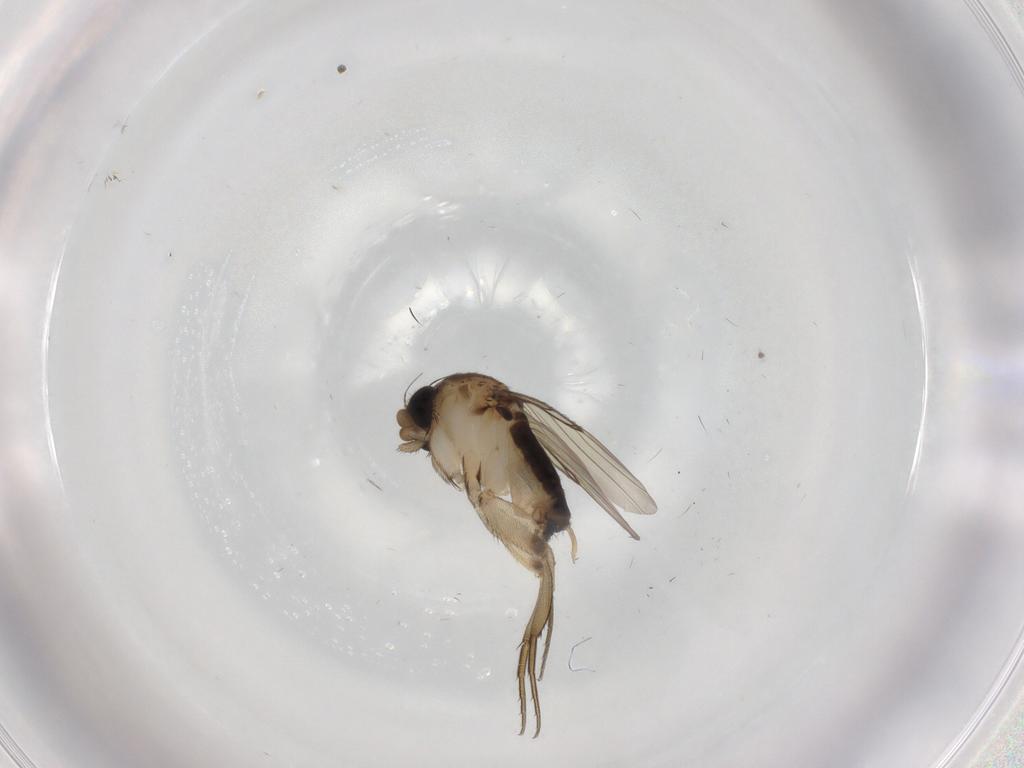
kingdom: Animalia
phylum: Arthropoda
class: Insecta
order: Diptera
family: Phoridae
